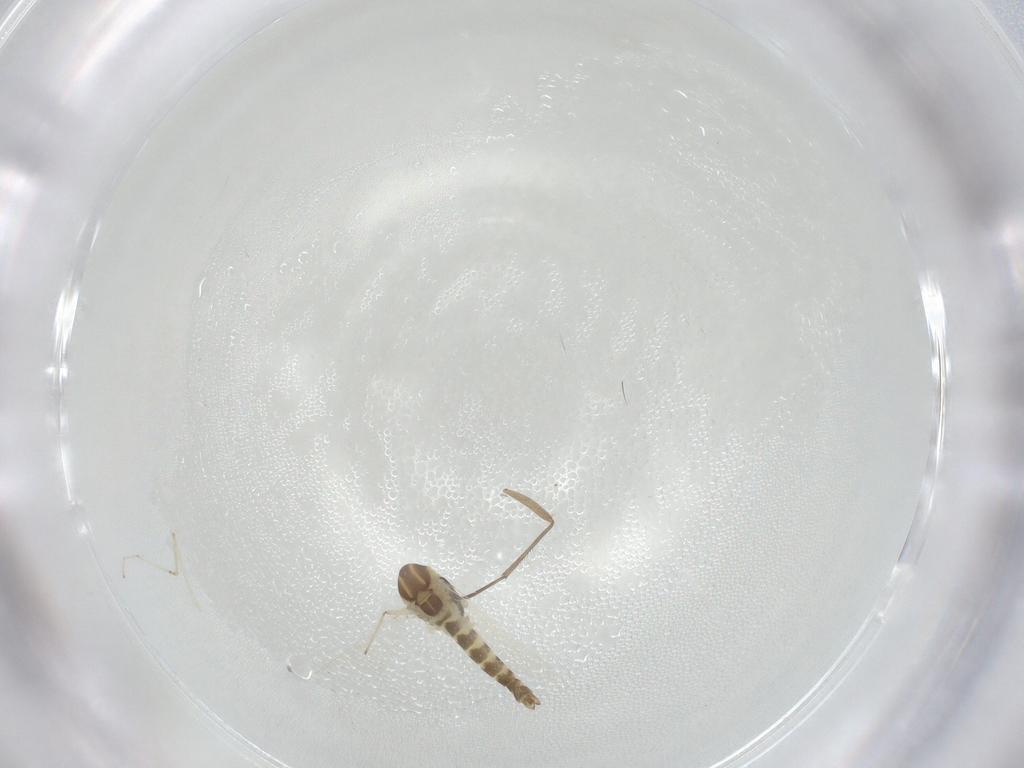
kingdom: Animalia
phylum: Arthropoda
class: Insecta
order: Diptera
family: Chironomidae
